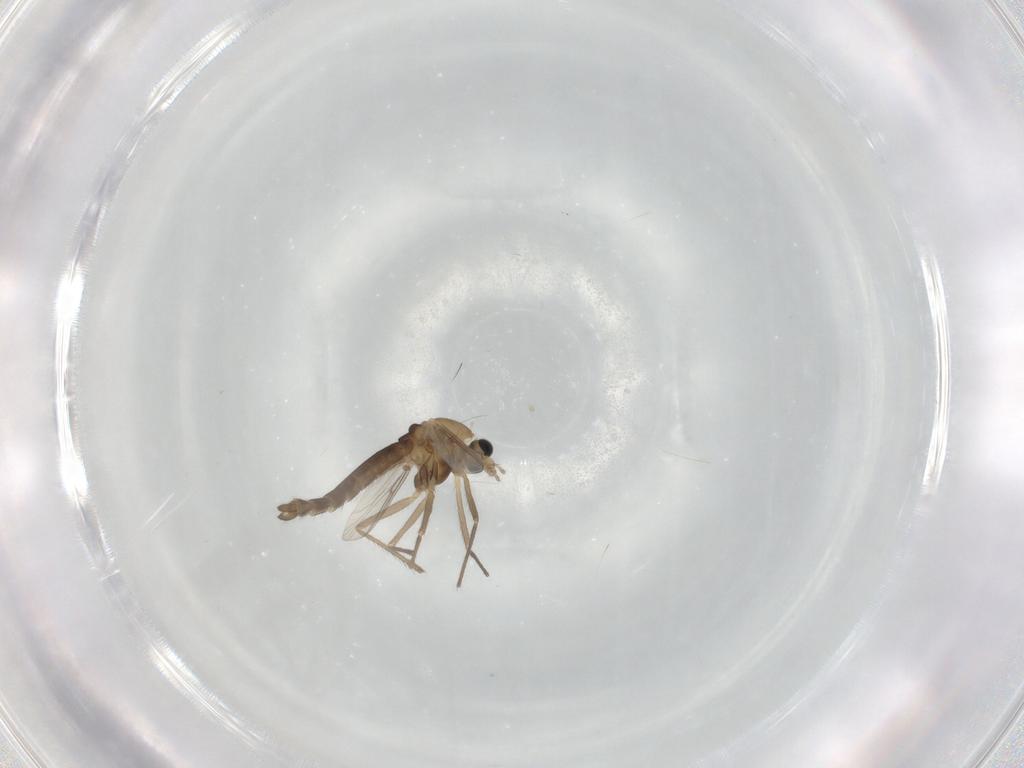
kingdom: Animalia
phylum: Arthropoda
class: Insecta
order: Diptera
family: Chironomidae
